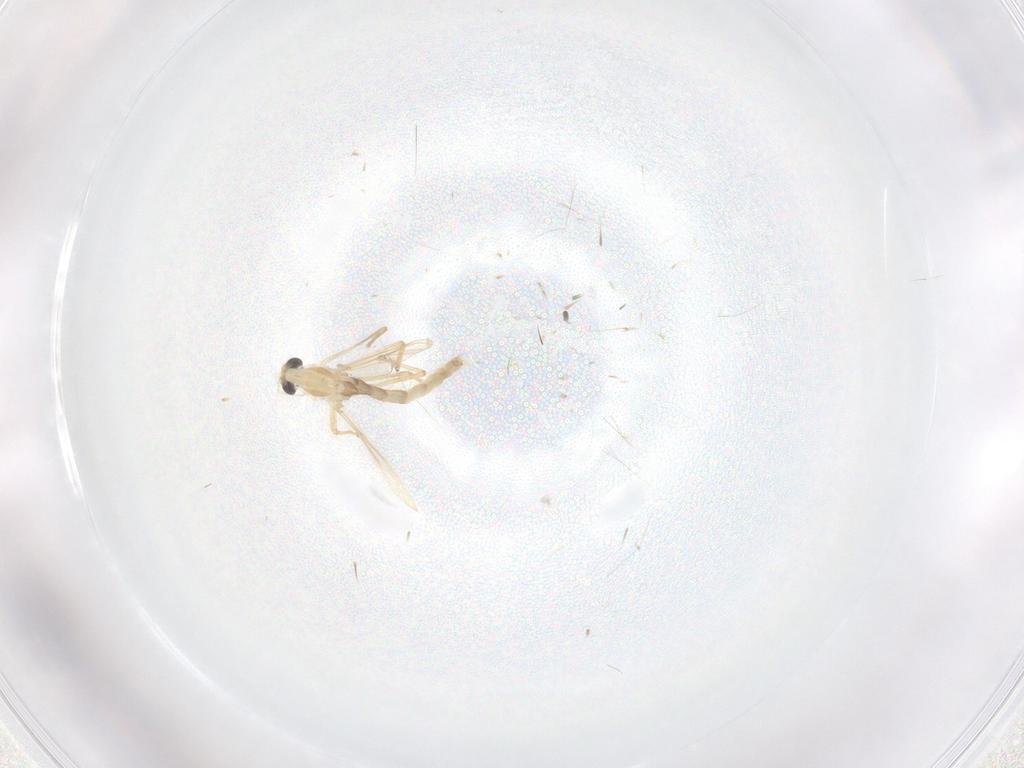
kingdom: Animalia
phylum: Arthropoda
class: Insecta
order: Diptera
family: Chironomidae
